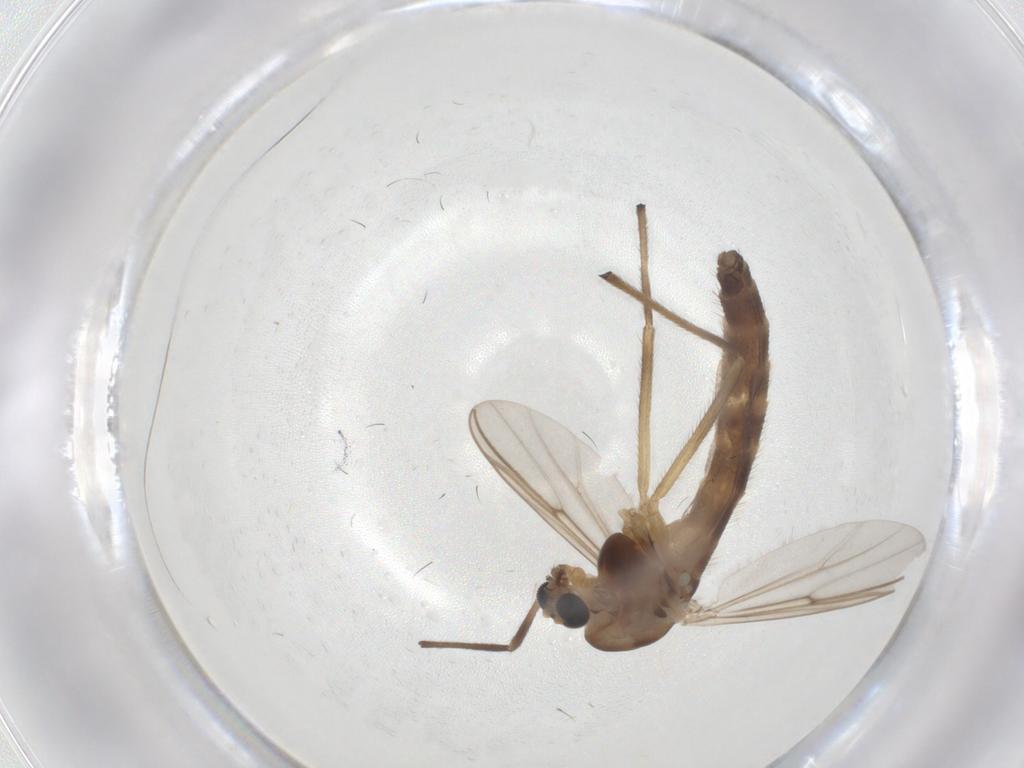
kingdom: Animalia
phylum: Arthropoda
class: Insecta
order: Diptera
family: Chironomidae
